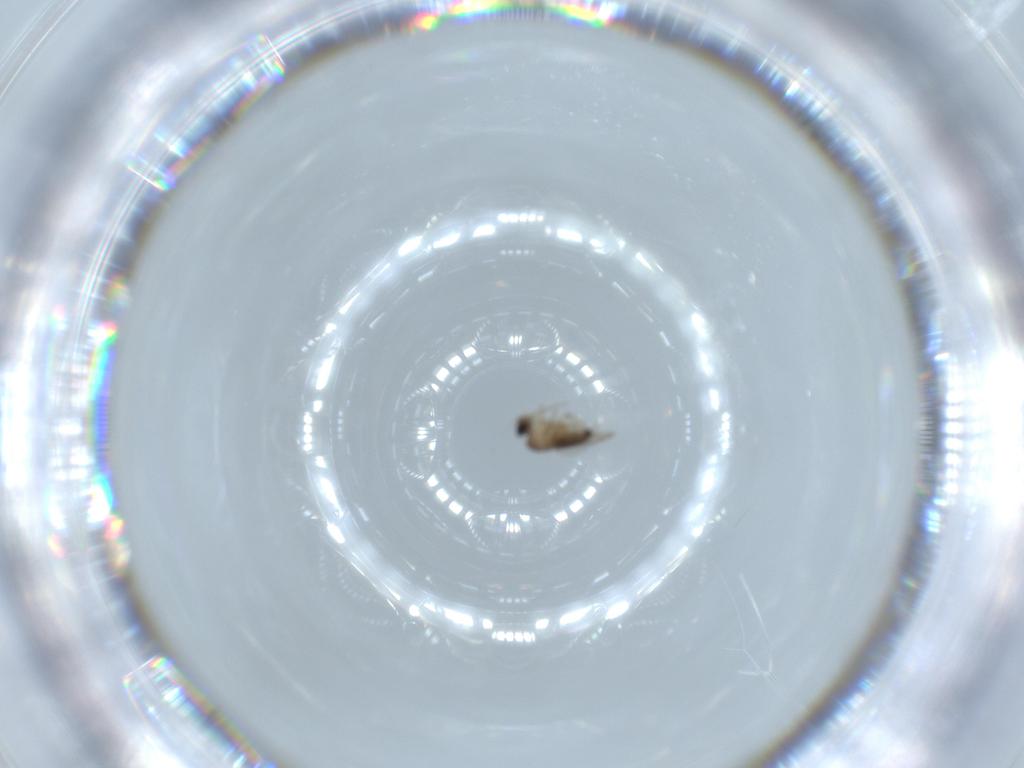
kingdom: Animalia
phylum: Arthropoda
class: Insecta
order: Diptera
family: Phoridae
